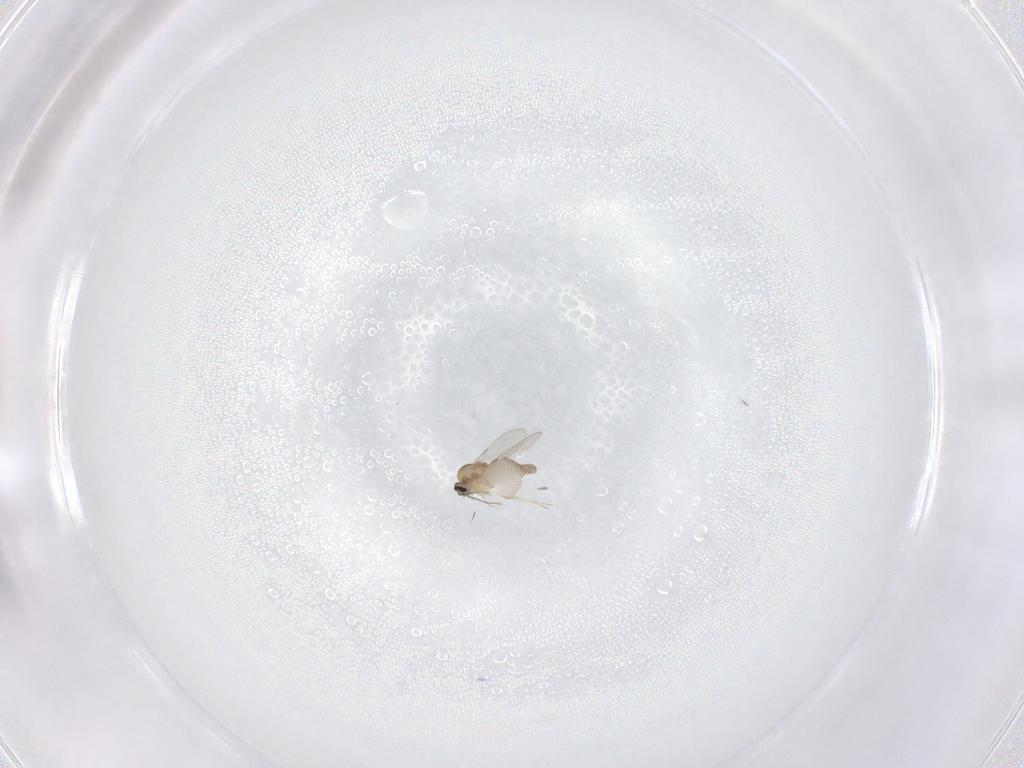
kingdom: Animalia
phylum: Arthropoda
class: Insecta
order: Diptera
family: Ceratopogonidae
